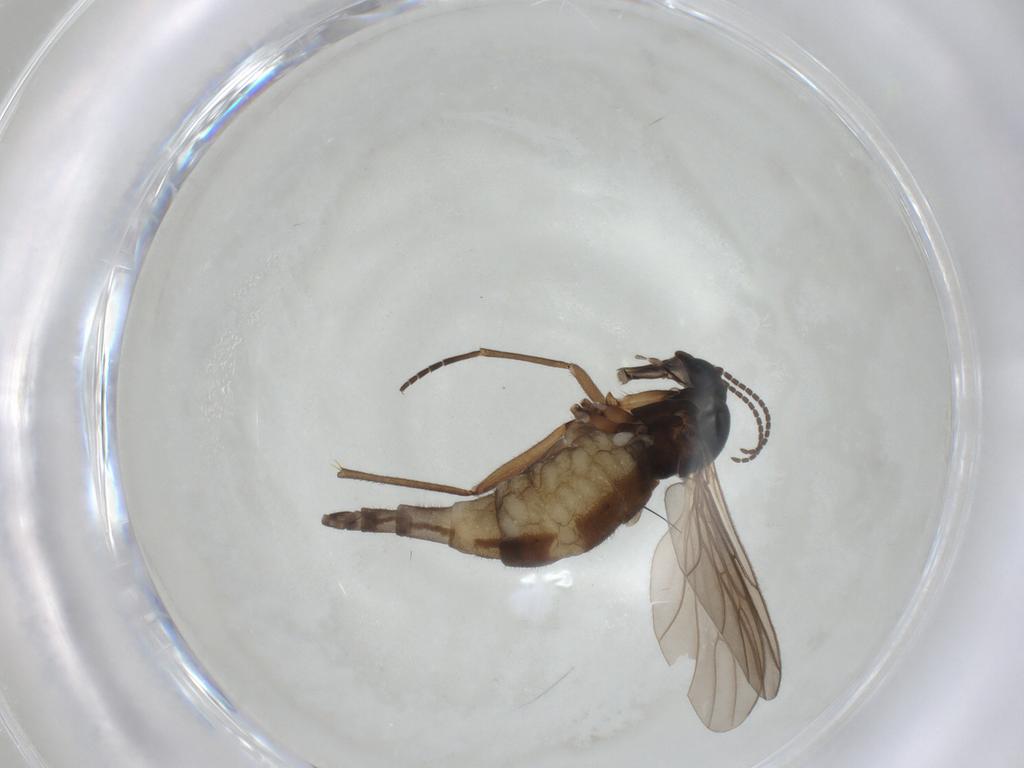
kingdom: Animalia
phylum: Arthropoda
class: Insecta
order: Diptera
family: Sciaridae
